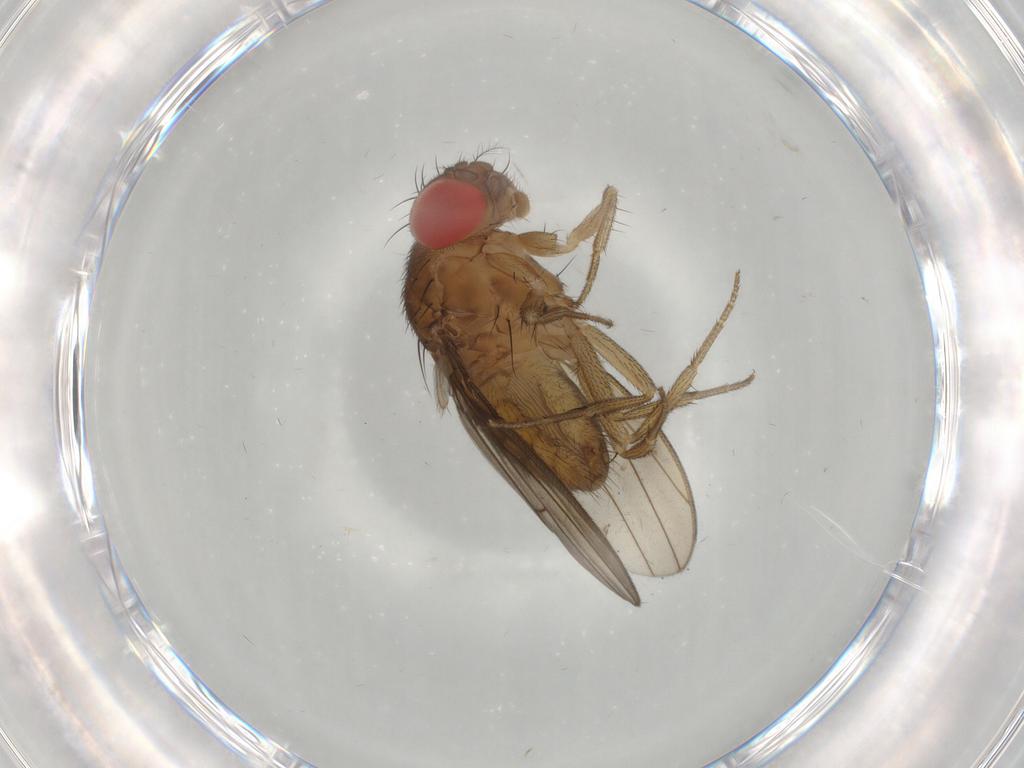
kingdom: Animalia
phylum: Arthropoda
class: Insecta
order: Diptera
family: Drosophilidae
